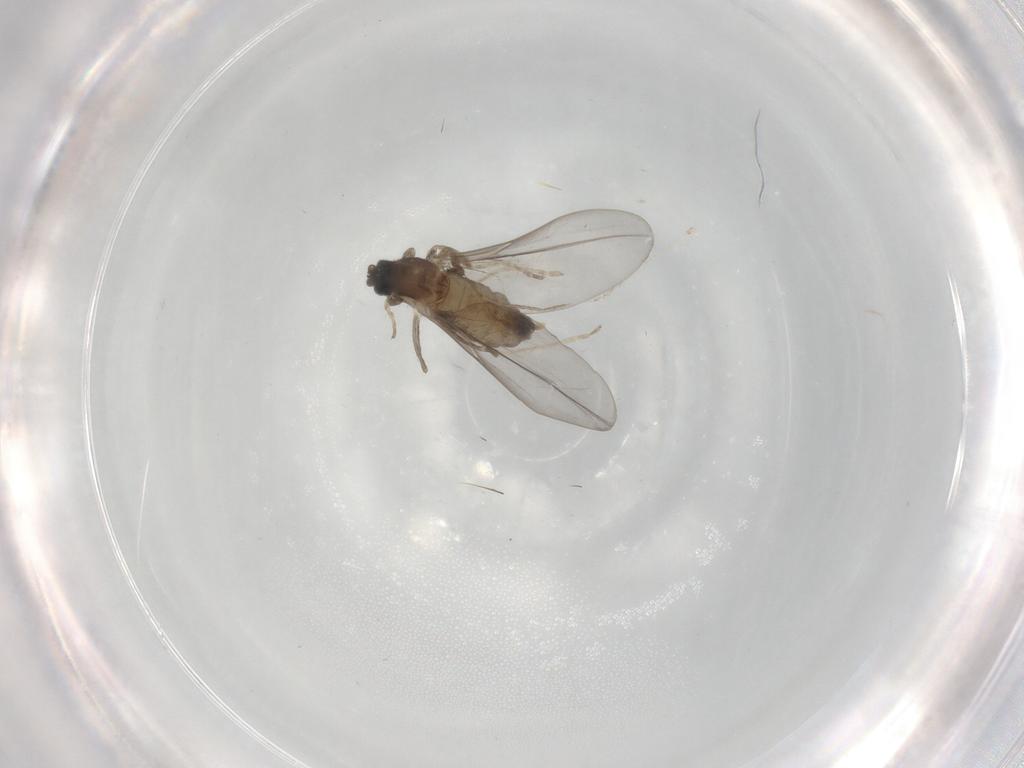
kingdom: Animalia
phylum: Arthropoda
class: Insecta
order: Diptera
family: Cecidomyiidae
